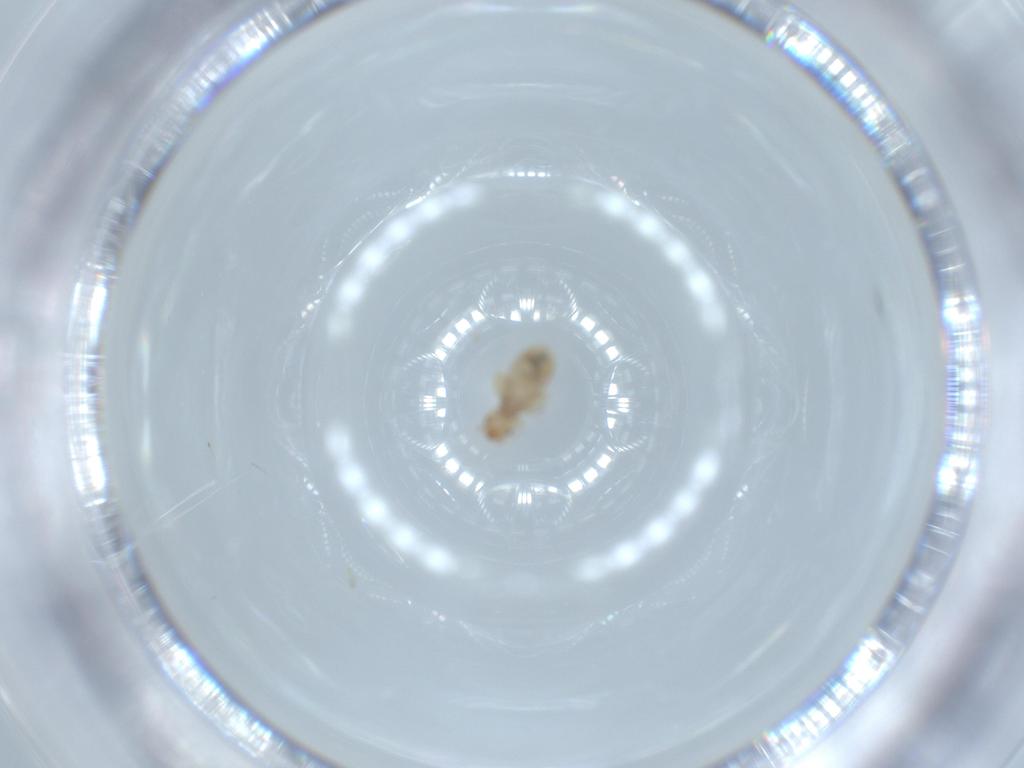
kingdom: Animalia
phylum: Arthropoda
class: Insecta
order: Psocodea
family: Liposcelididae
